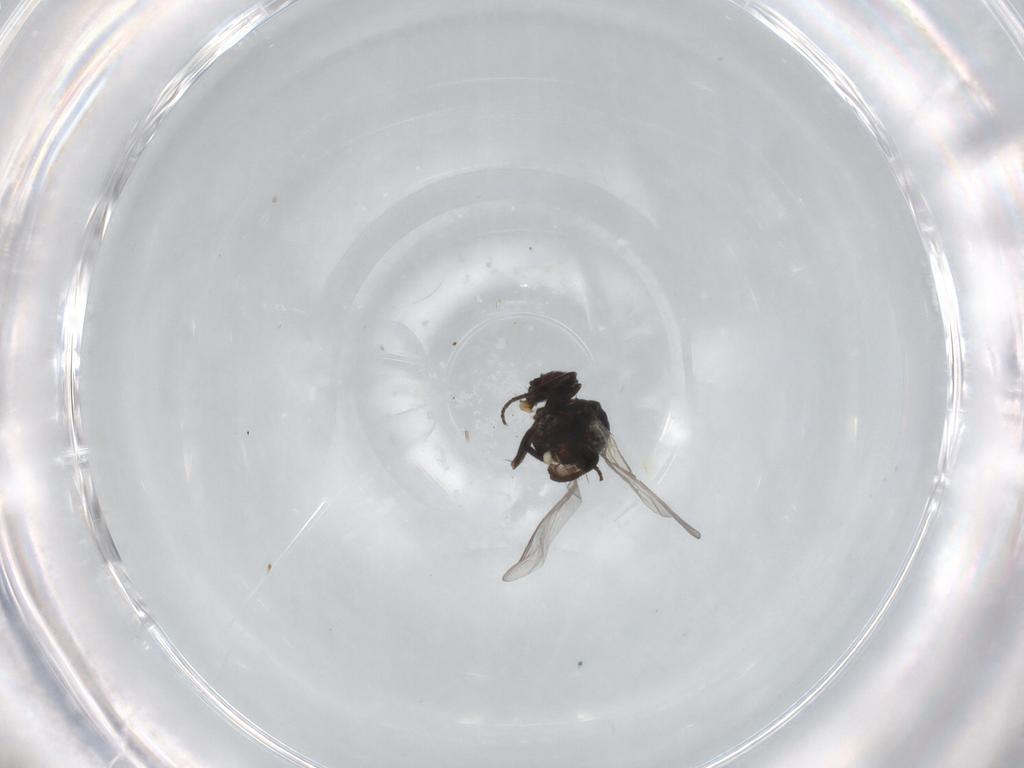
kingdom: Animalia
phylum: Arthropoda
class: Insecta
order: Diptera
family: Agromyzidae
